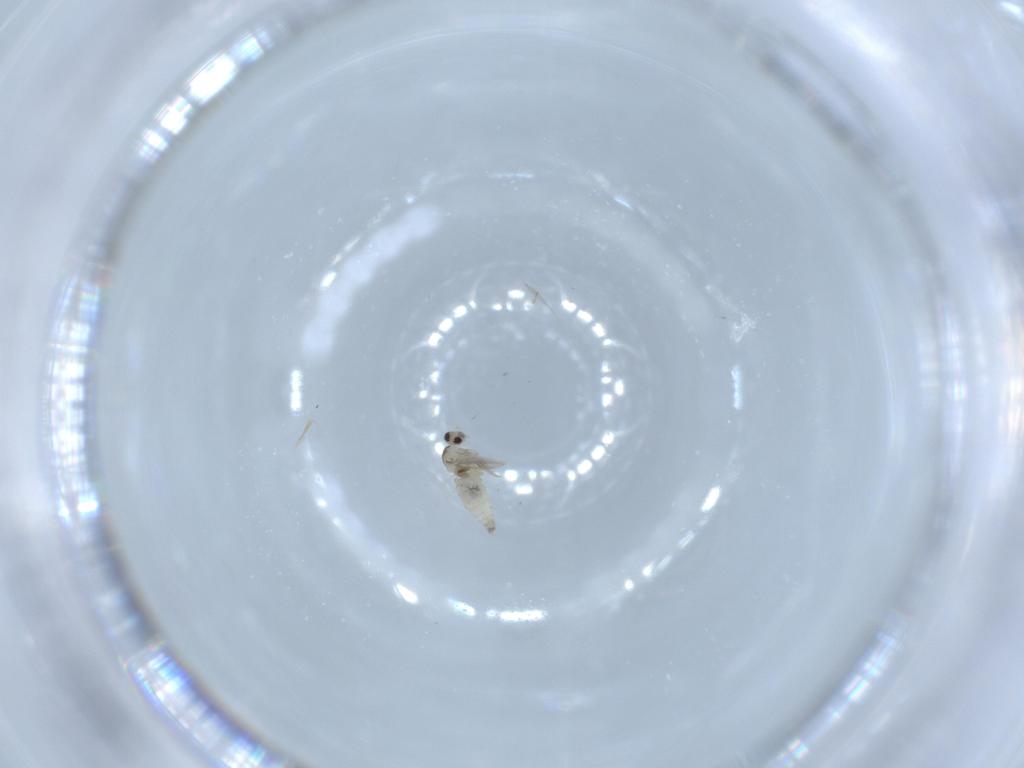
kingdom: Animalia
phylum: Arthropoda
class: Insecta
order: Diptera
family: Cecidomyiidae
